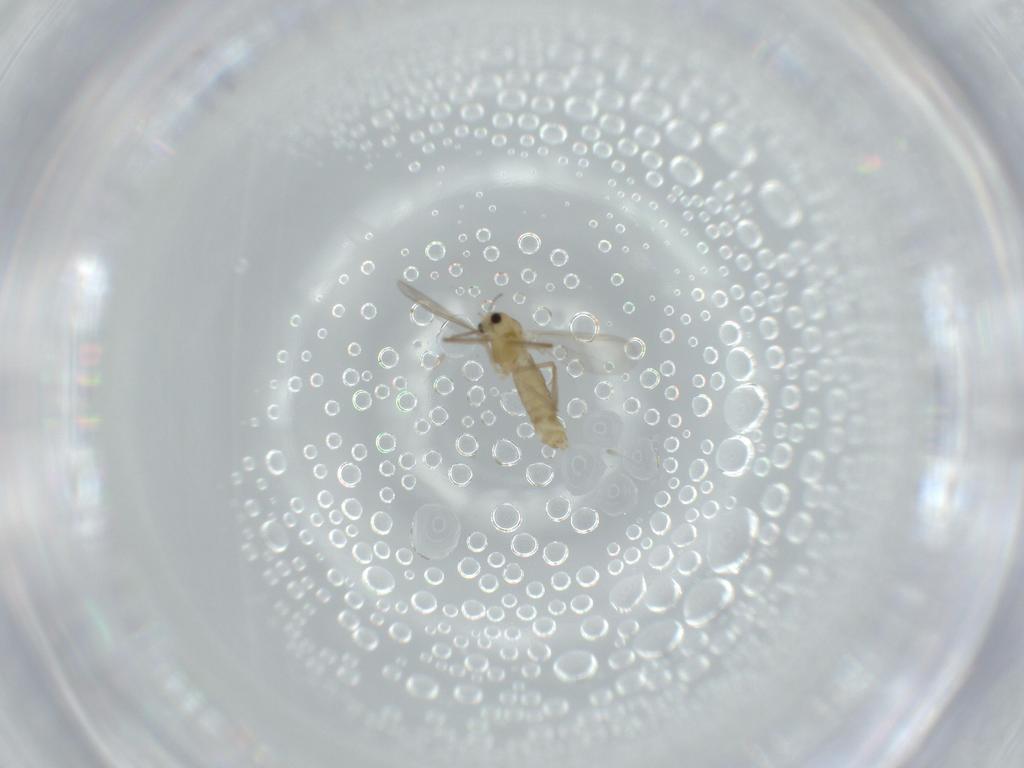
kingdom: Animalia
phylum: Arthropoda
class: Insecta
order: Diptera
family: Chironomidae
